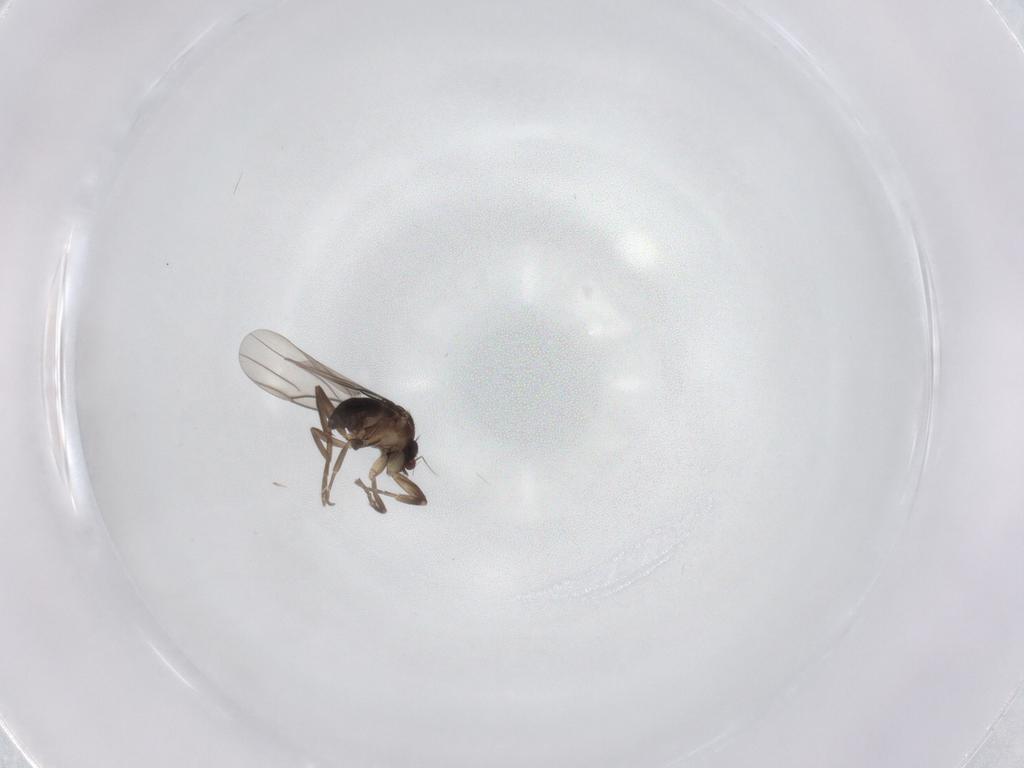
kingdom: Animalia
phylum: Arthropoda
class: Insecta
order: Diptera
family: Phoridae
